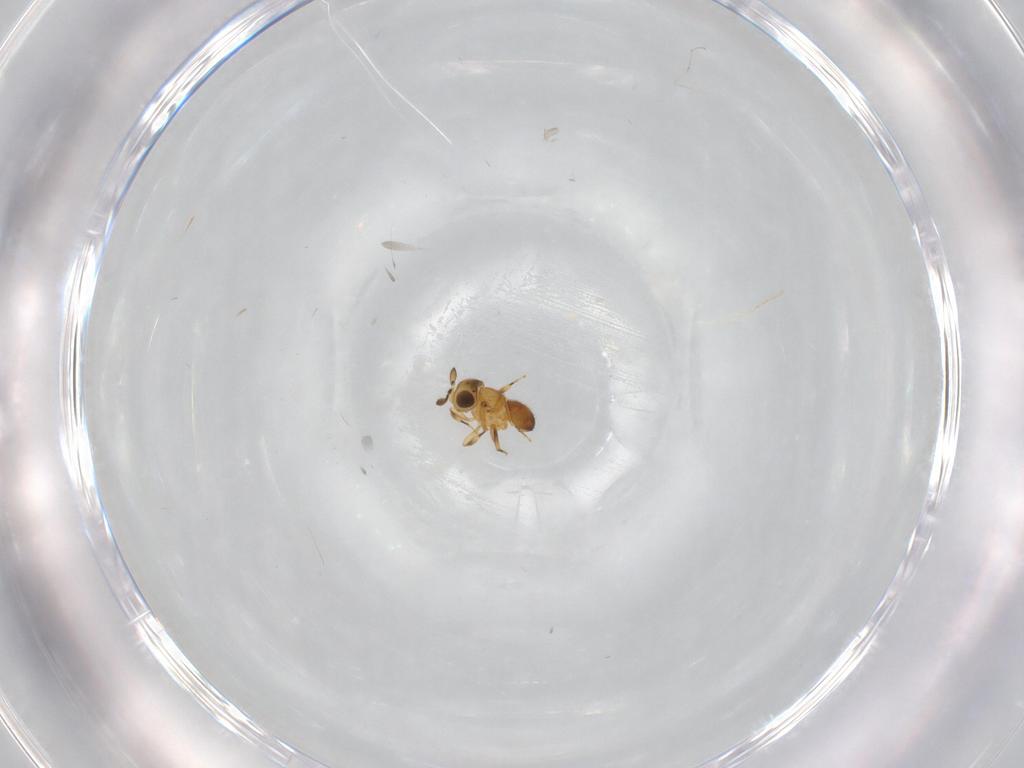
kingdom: Animalia
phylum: Arthropoda
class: Insecta
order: Hymenoptera
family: Scelionidae
